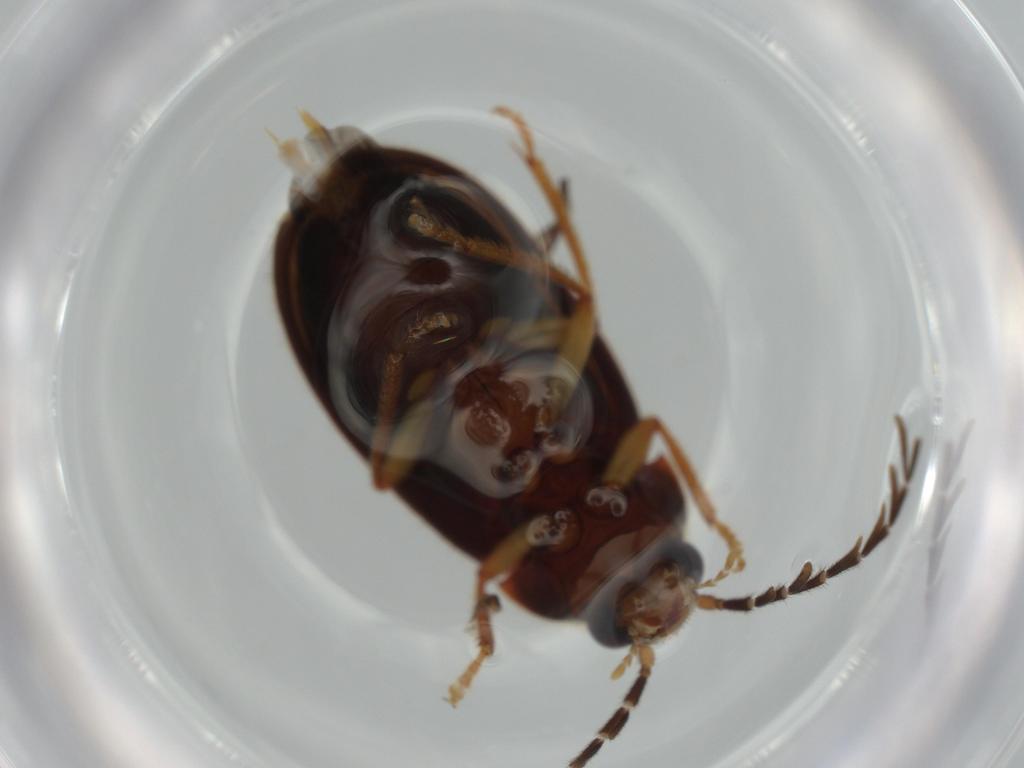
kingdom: Animalia
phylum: Arthropoda
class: Insecta
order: Coleoptera
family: Ptilodactylidae
